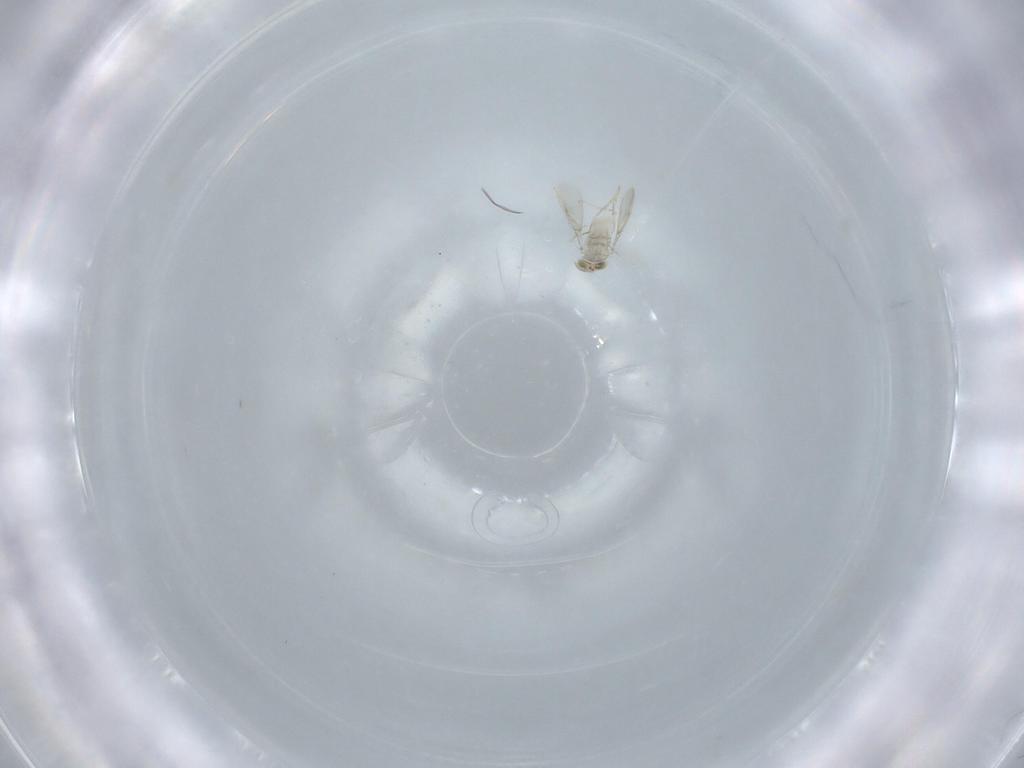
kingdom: Animalia
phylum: Arthropoda
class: Insecta
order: Hymenoptera
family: Aphelinidae
